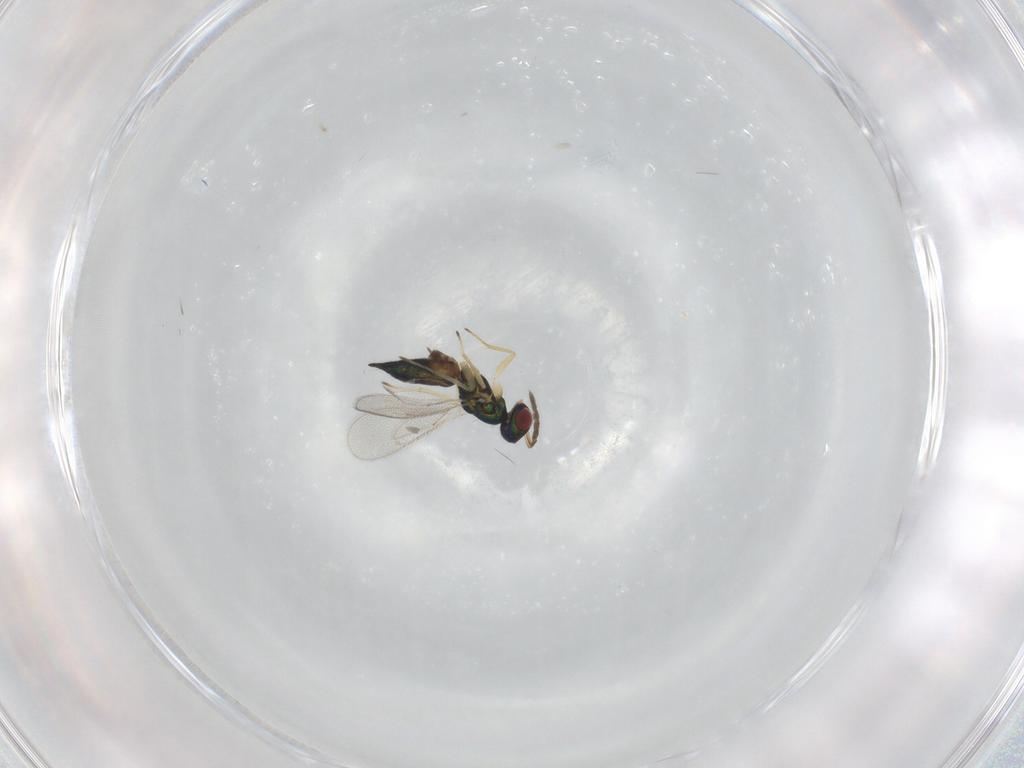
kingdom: Animalia
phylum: Arthropoda
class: Insecta
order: Hymenoptera
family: Eulophidae
